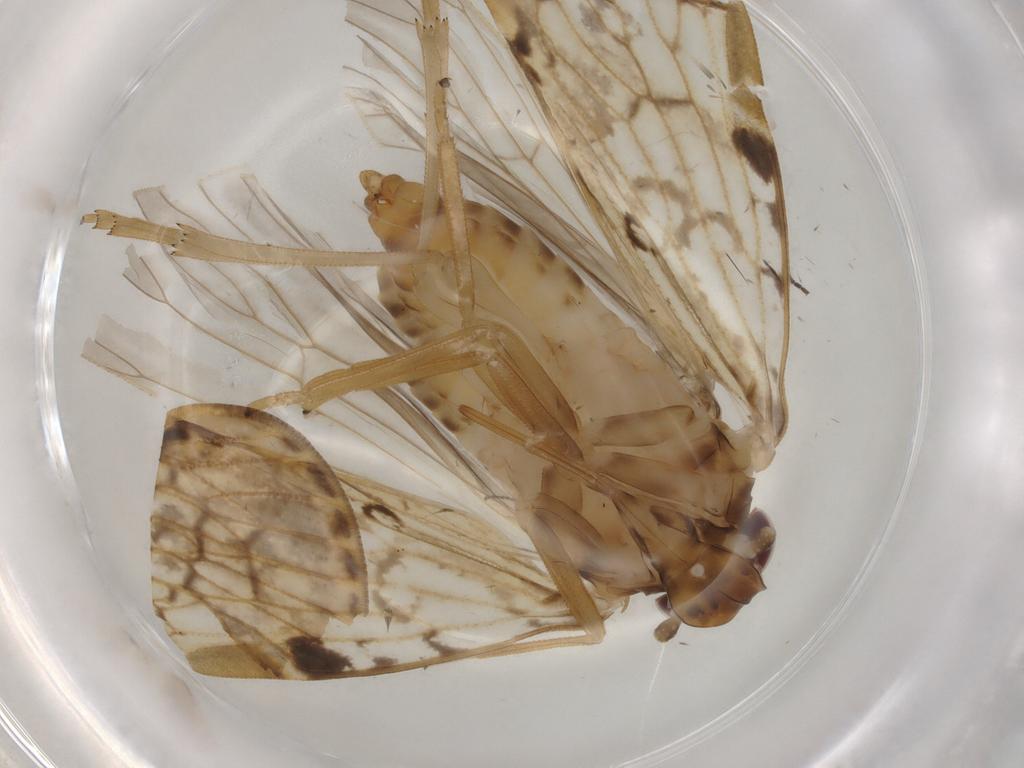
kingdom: Animalia
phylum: Arthropoda
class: Insecta
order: Hemiptera
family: Cixiidae
